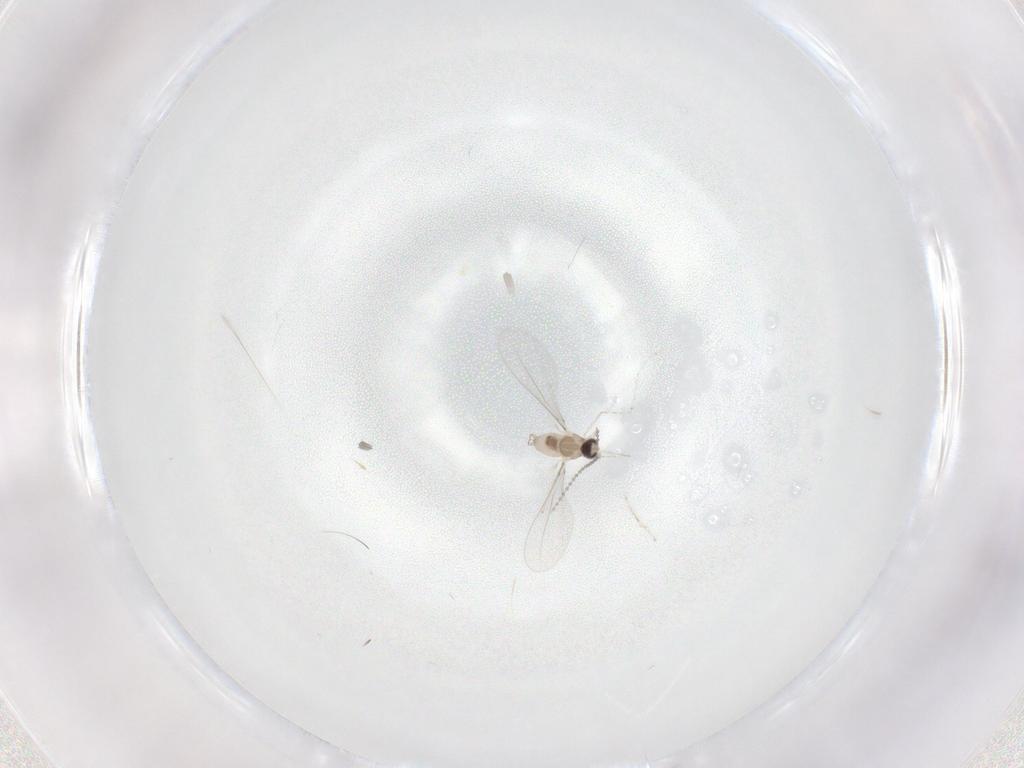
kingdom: Animalia
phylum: Arthropoda
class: Insecta
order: Diptera
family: Cecidomyiidae
